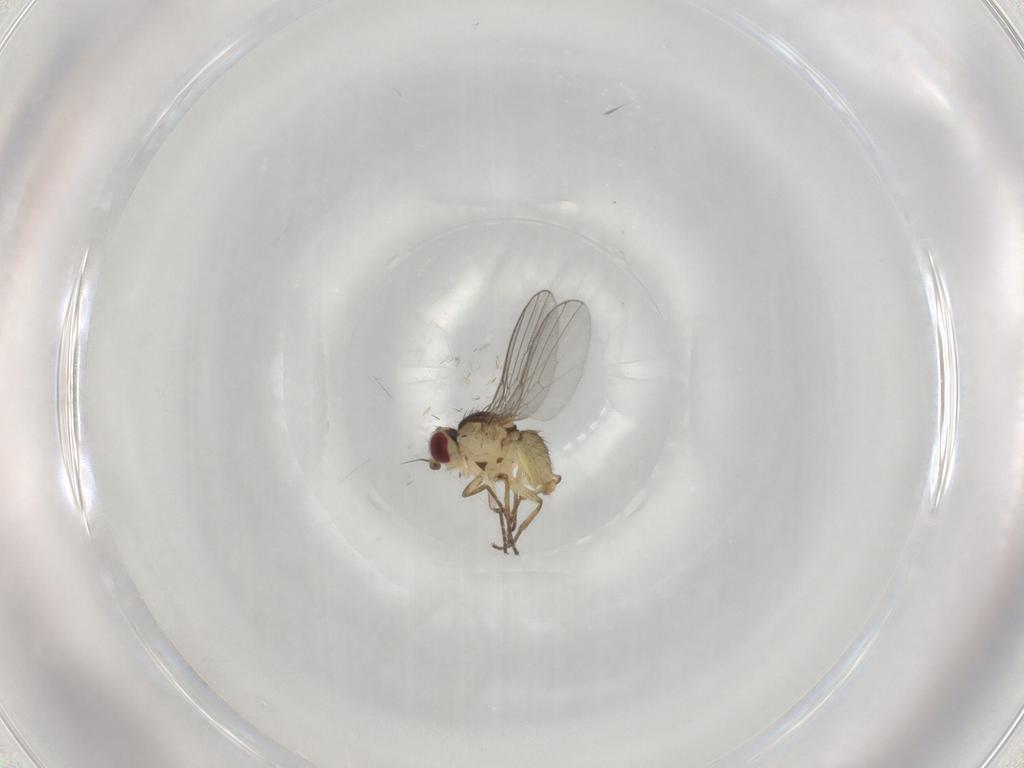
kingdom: Animalia
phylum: Arthropoda
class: Insecta
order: Diptera
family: Agromyzidae
